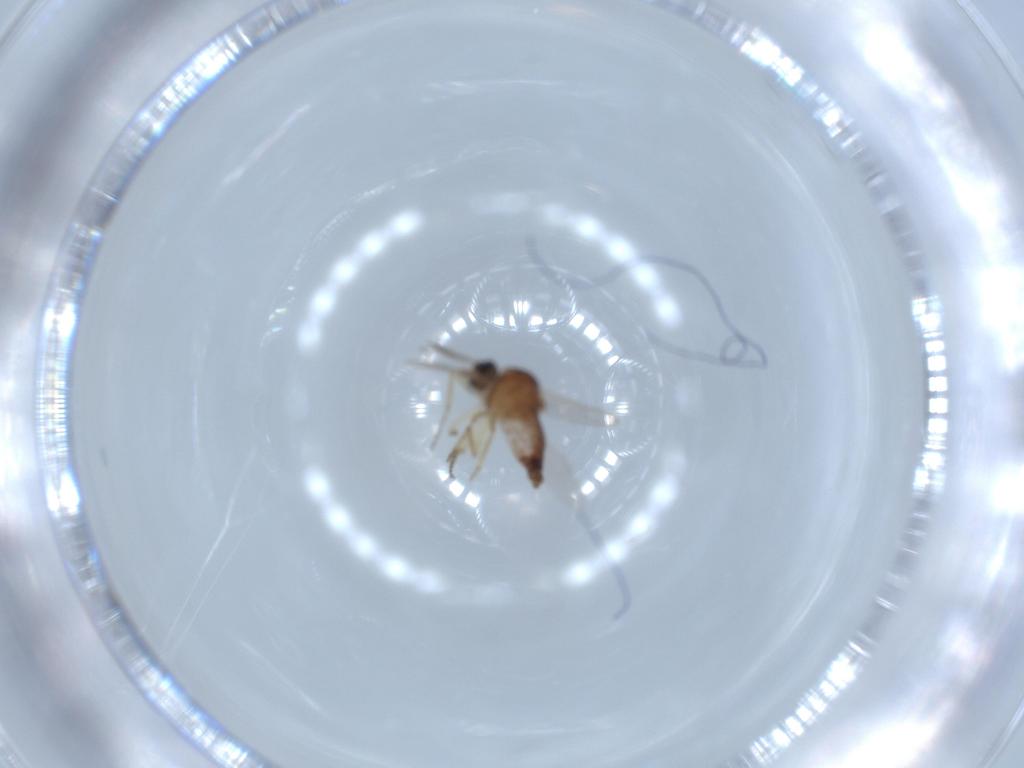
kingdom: Animalia
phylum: Arthropoda
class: Insecta
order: Diptera
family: Ceratopogonidae
